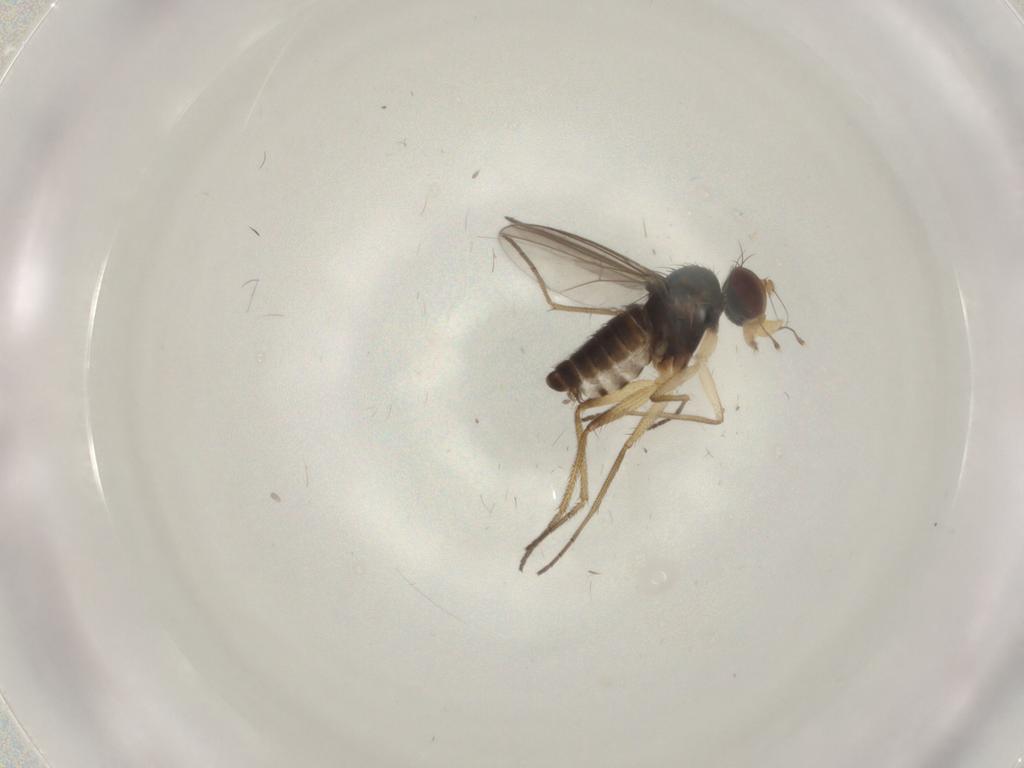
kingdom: Animalia
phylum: Arthropoda
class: Insecta
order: Diptera
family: Dolichopodidae
